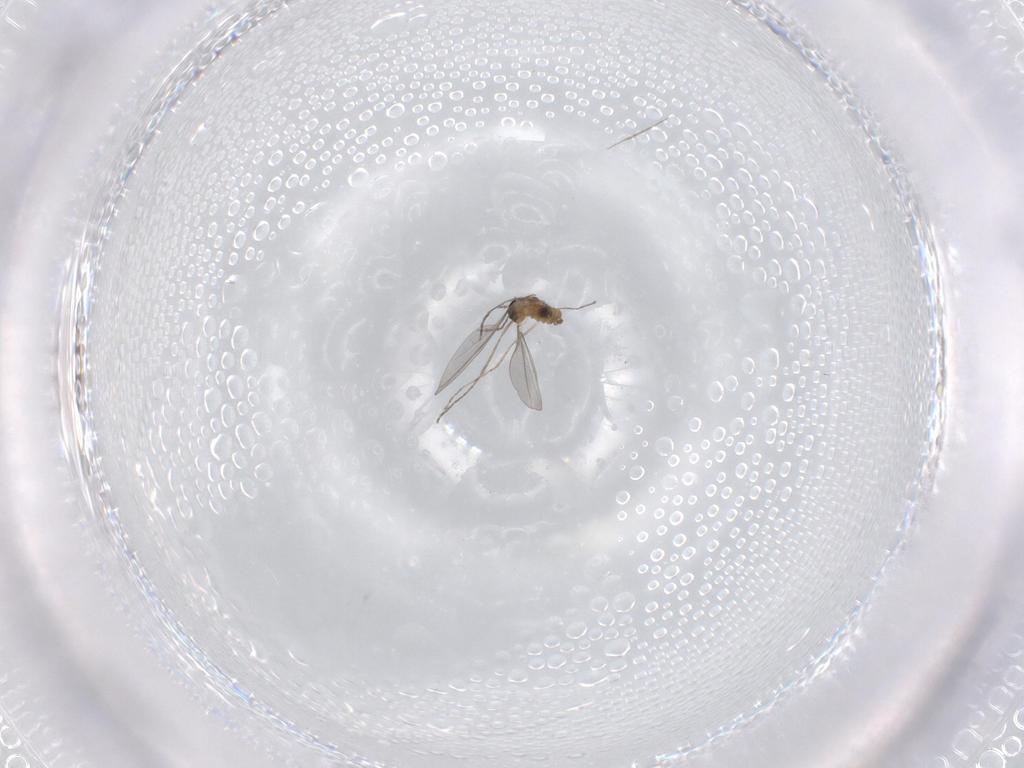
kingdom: Animalia
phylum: Arthropoda
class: Insecta
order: Diptera
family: Sciaridae
